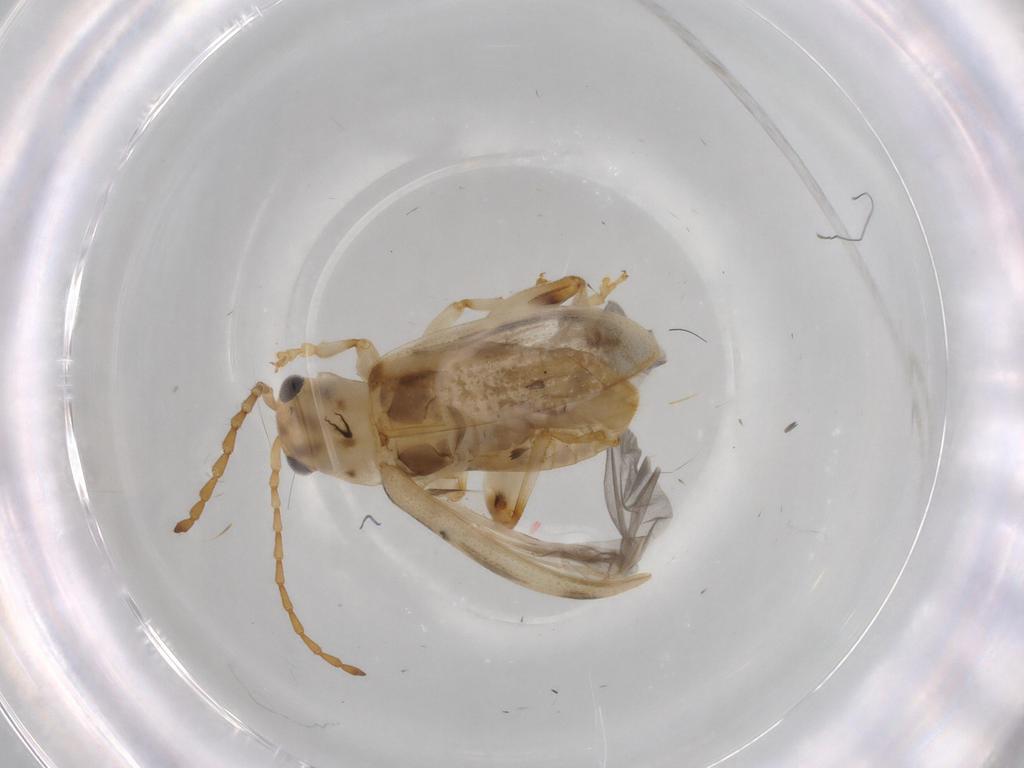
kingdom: Animalia
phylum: Arthropoda
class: Insecta
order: Coleoptera
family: Chrysomelidae
